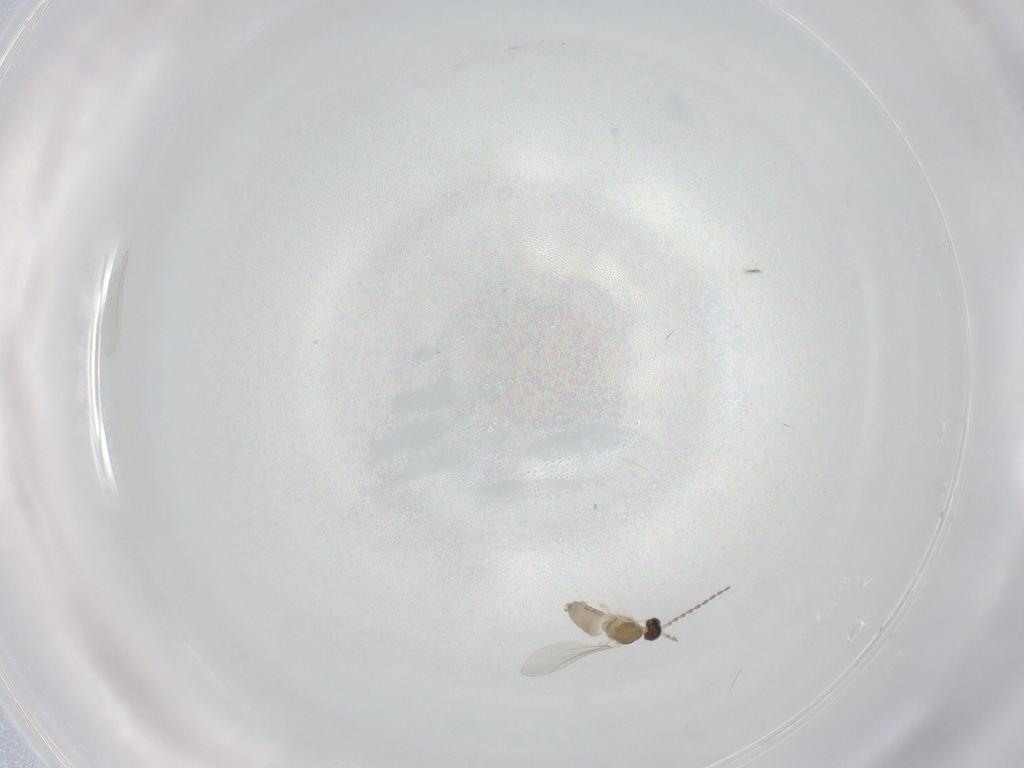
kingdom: Animalia
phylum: Arthropoda
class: Insecta
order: Diptera
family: Cecidomyiidae
